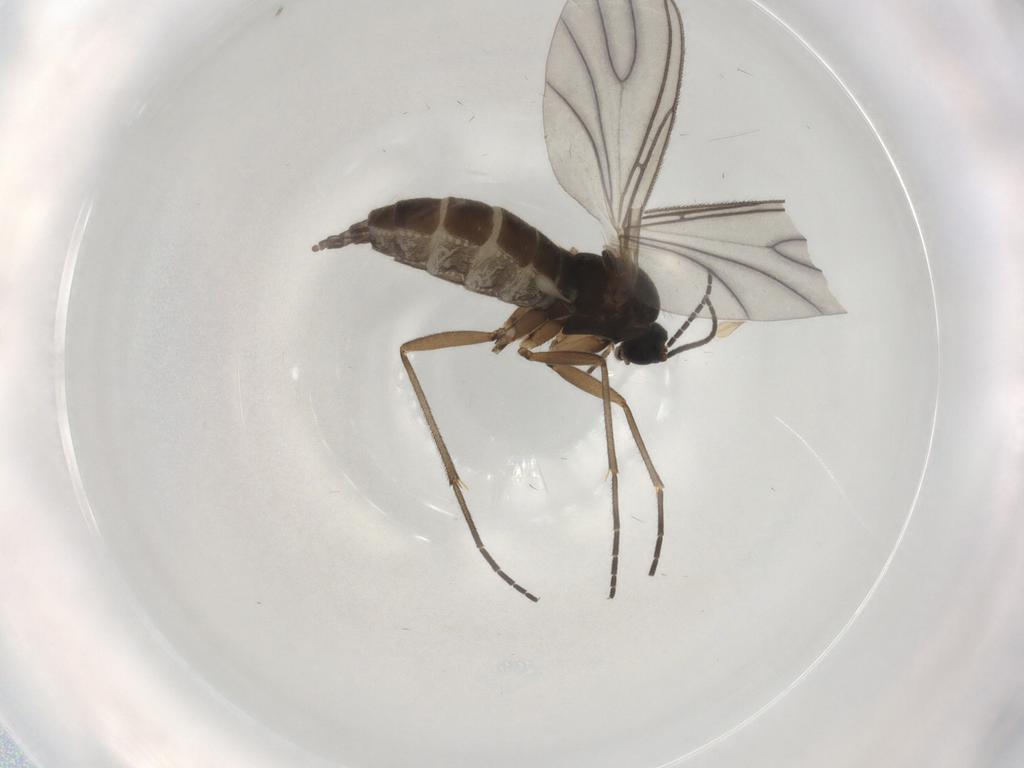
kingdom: Animalia
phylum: Arthropoda
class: Insecta
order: Diptera
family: Sciaridae
